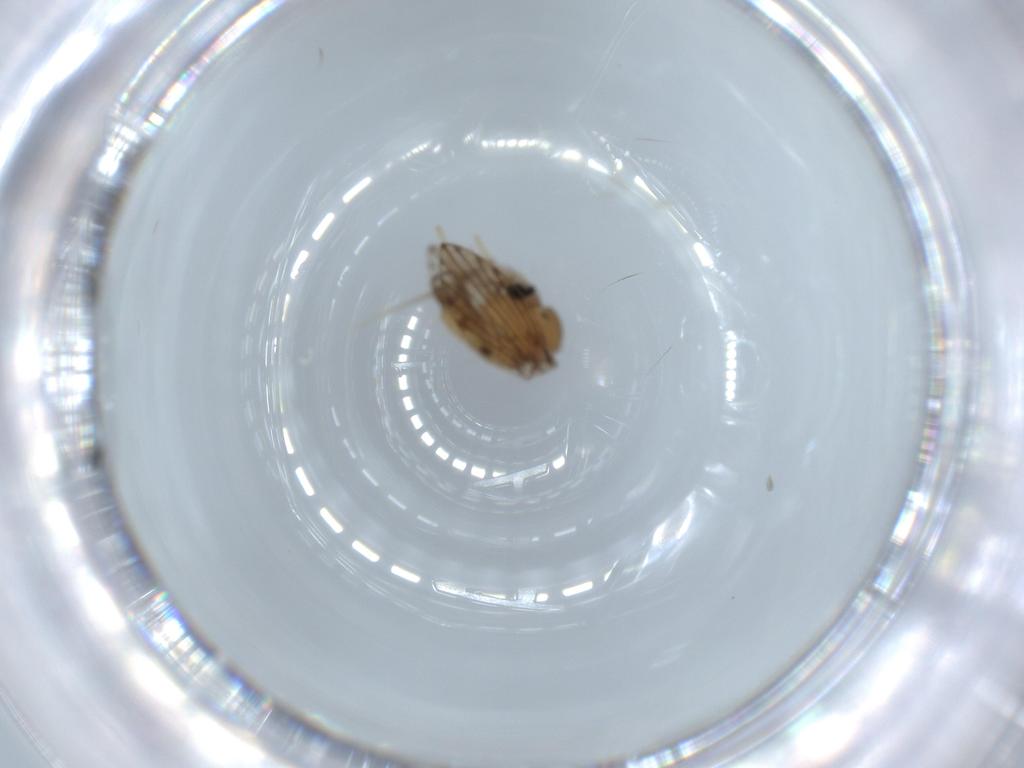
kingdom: Animalia
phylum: Arthropoda
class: Insecta
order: Diptera
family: Psychodidae
